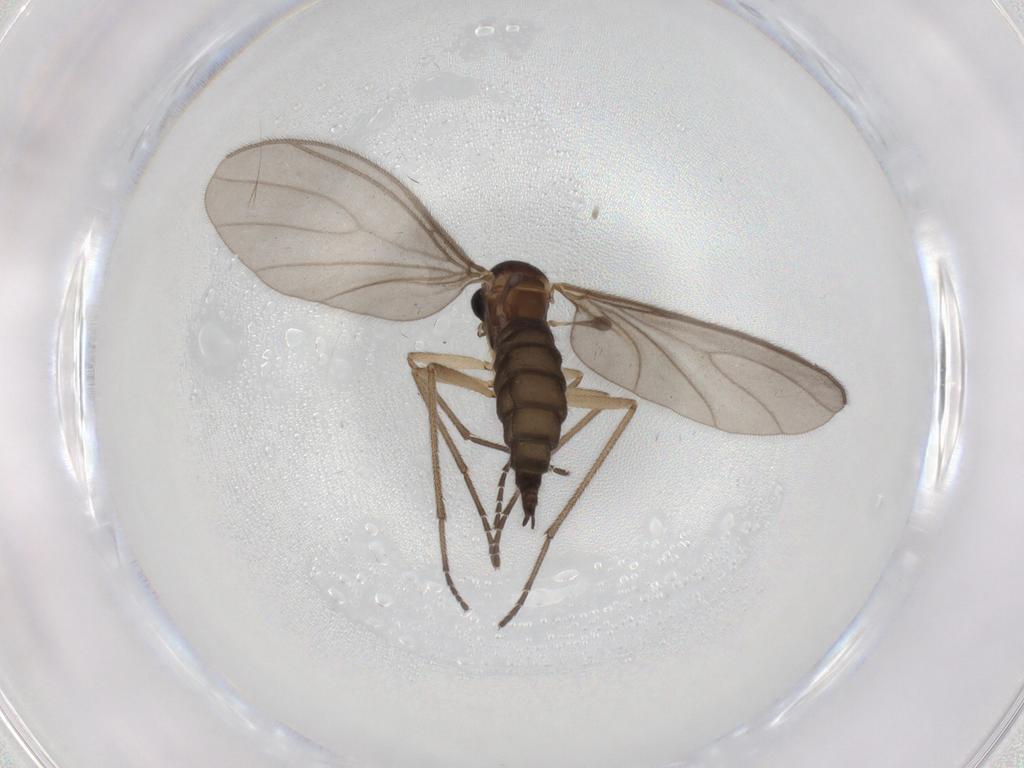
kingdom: Animalia
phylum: Arthropoda
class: Insecta
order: Diptera
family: Sciaridae
